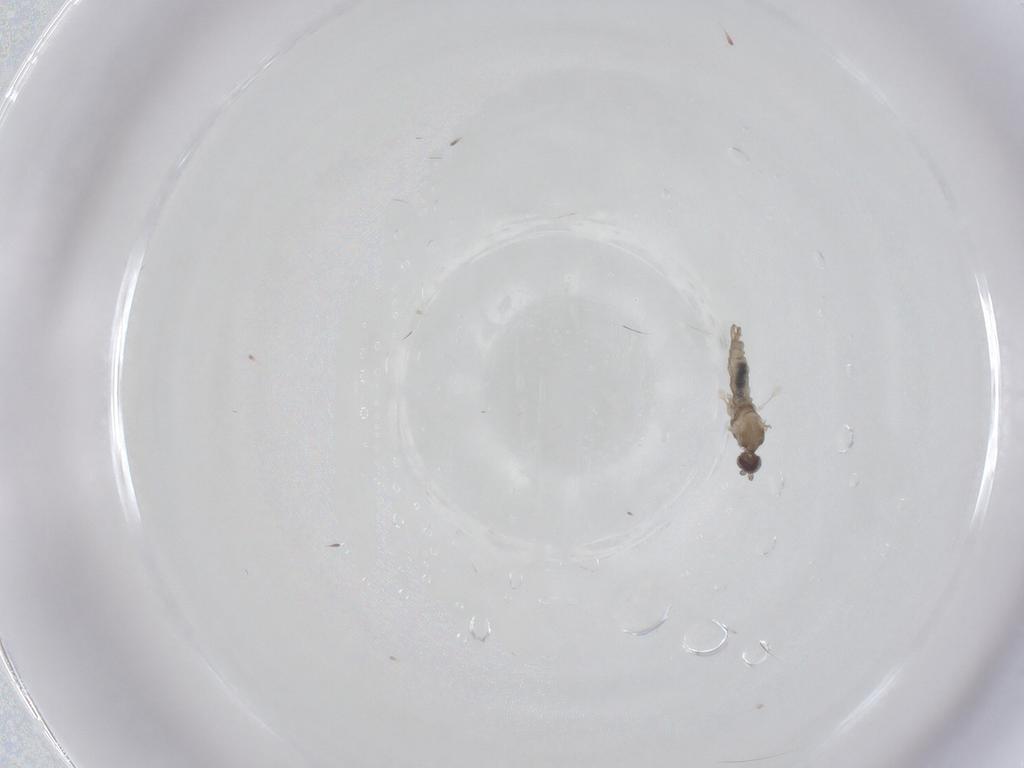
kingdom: Animalia
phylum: Arthropoda
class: Insecta
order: Diptera
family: Cecidomyiidae
